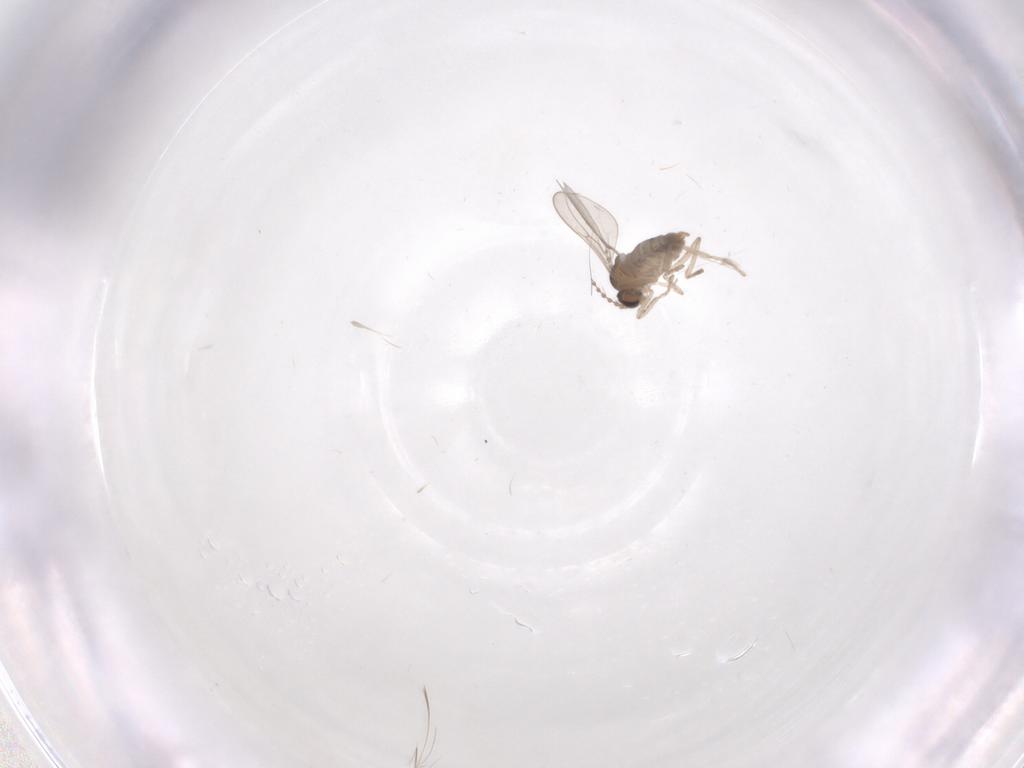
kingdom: Animalia
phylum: Arthropoda
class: Insecta
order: Diptera
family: Cecidomyiidae
